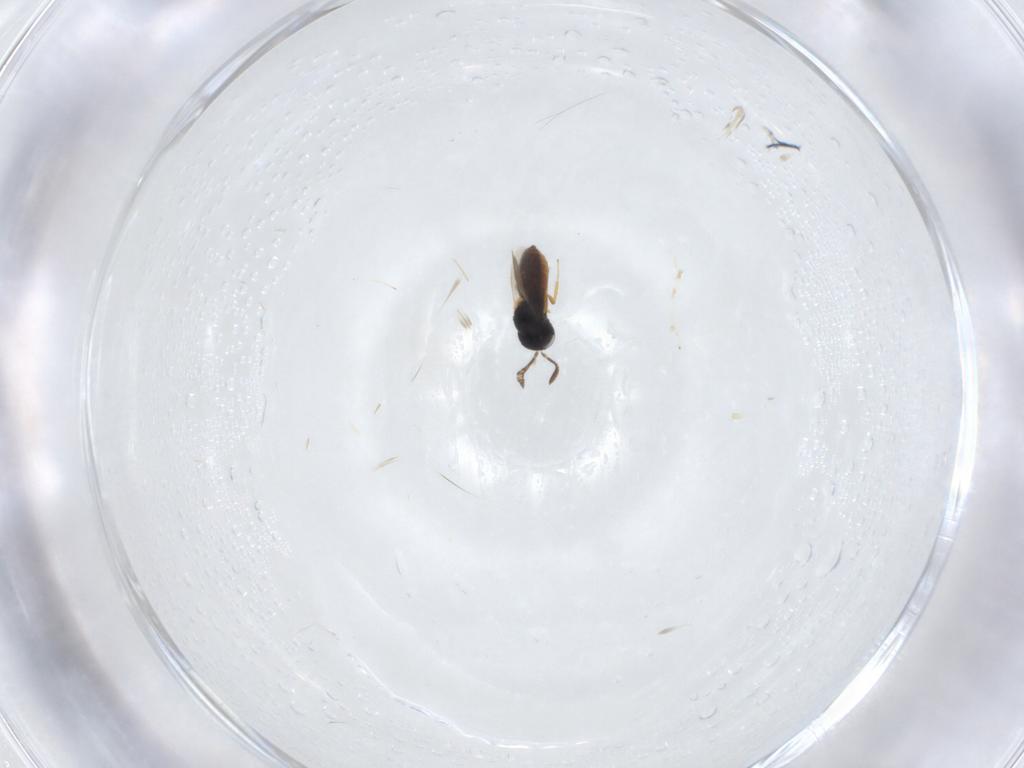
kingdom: Animalia
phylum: Arthropoda
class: Insecta
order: Hymenoptera
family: Scelionidae
